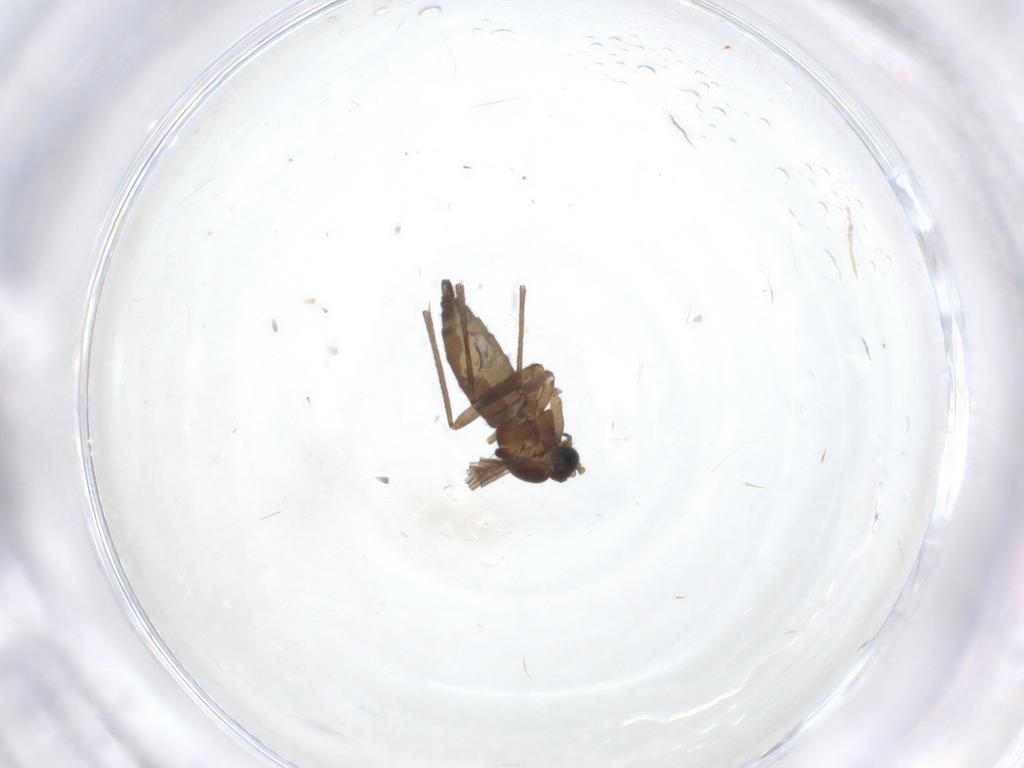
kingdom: Animalia
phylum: Arthropoda
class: Insecta
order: Diptera
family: Sciaridae
